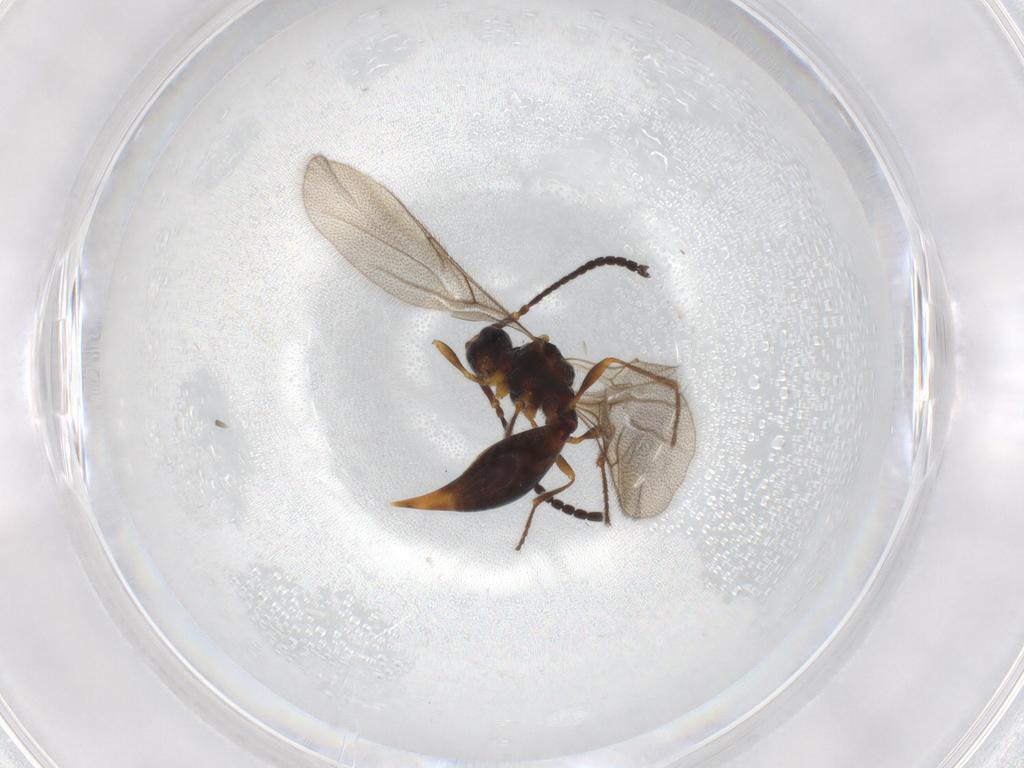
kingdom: Animalia
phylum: Arthropoda
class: Insecta
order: Hymenoptera
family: Diapriidae
